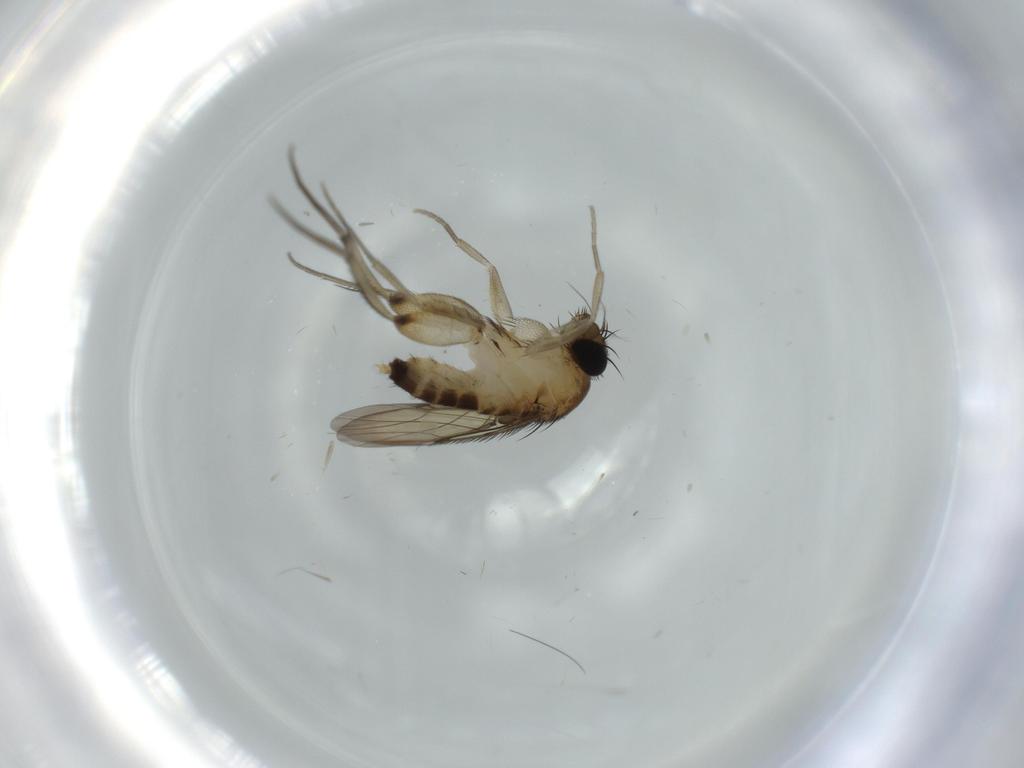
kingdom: Animalia
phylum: Arthropoda
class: Insecta
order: Diptera
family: Phoridae
